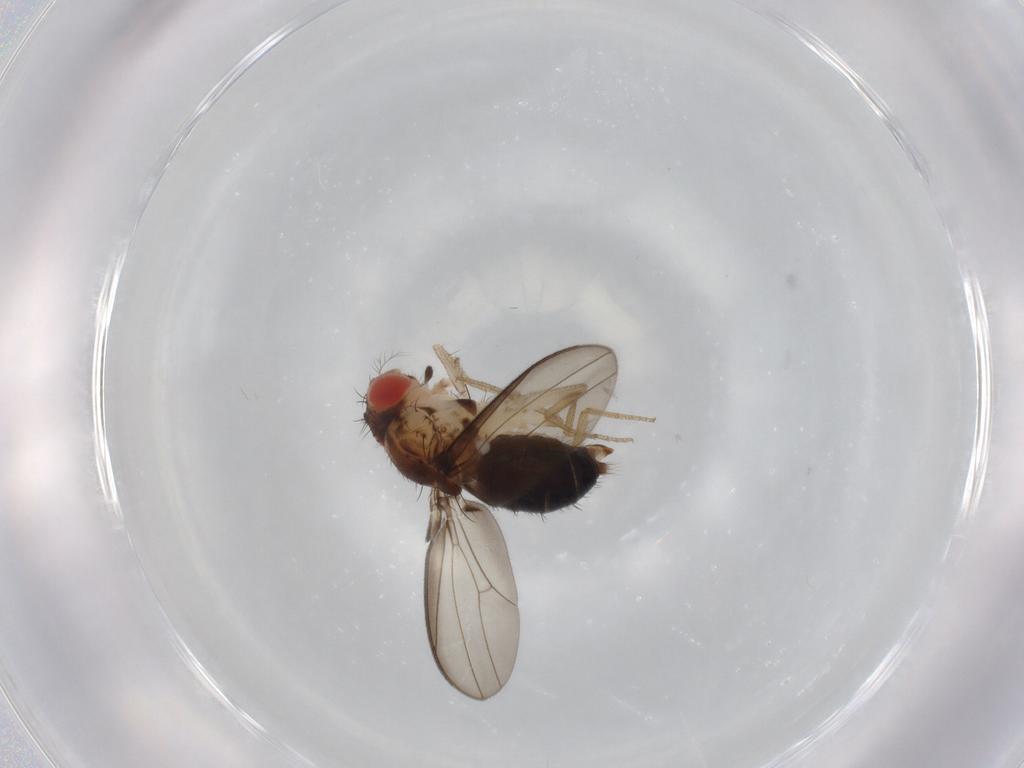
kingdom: Animalia
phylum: Arthropoda
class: Insecta
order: Diptera
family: Drosophilidae
